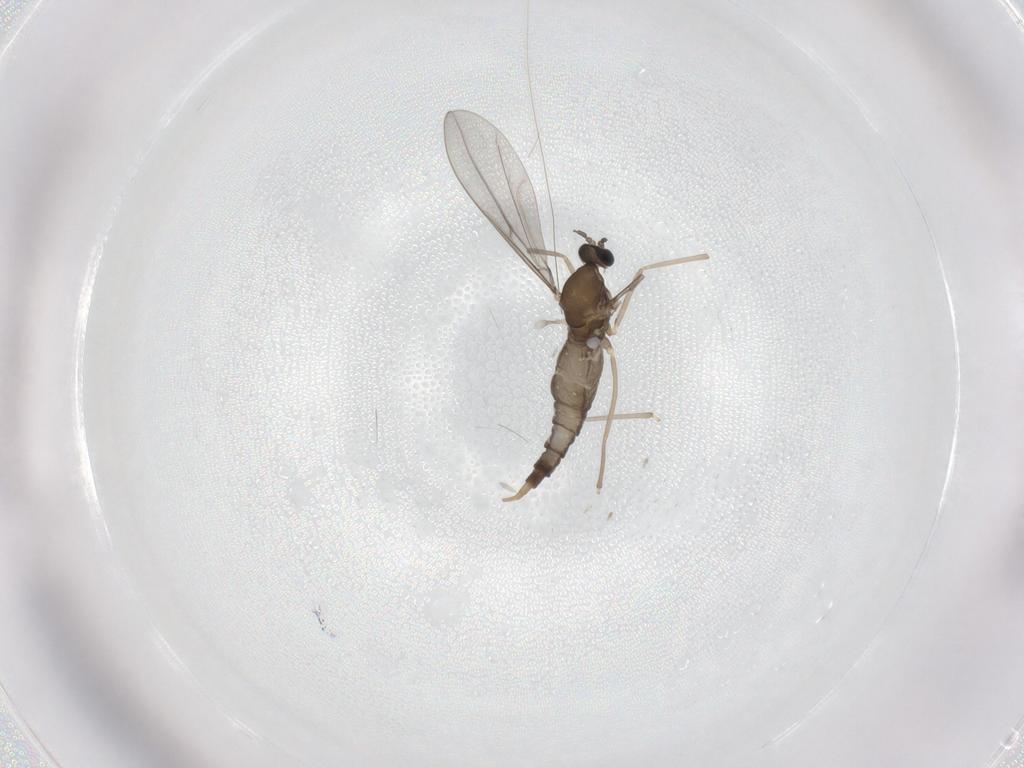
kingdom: Animalia
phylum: Arthropoda
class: Insecta
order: Diptera
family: Cecidomyiidae
